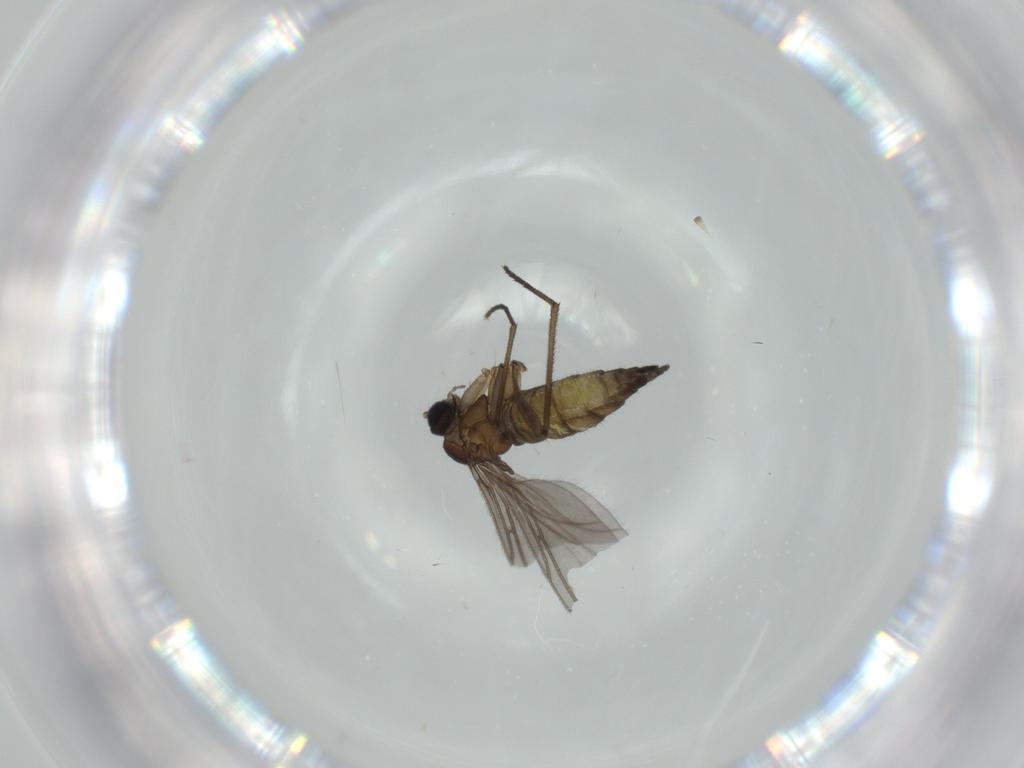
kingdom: Animalia
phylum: Arthropoda
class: Insecta
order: Diptera
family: Sciaridae
